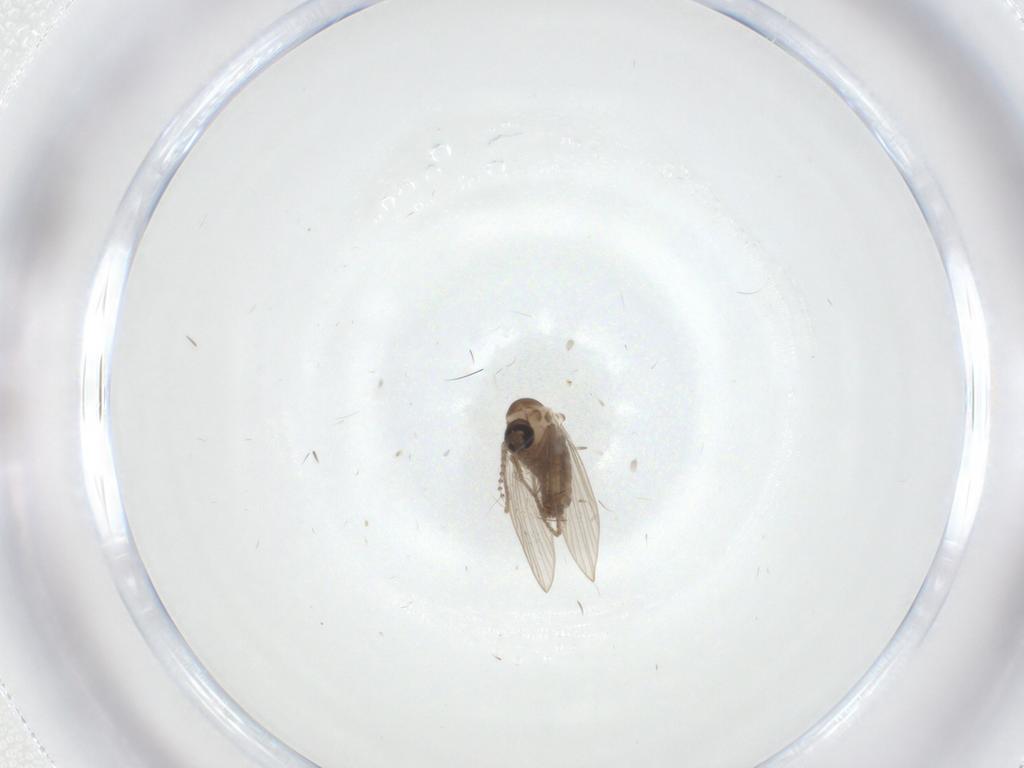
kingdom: Animalia
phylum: Arthropoda
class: Insecta
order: Diptera
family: Psychodidae
